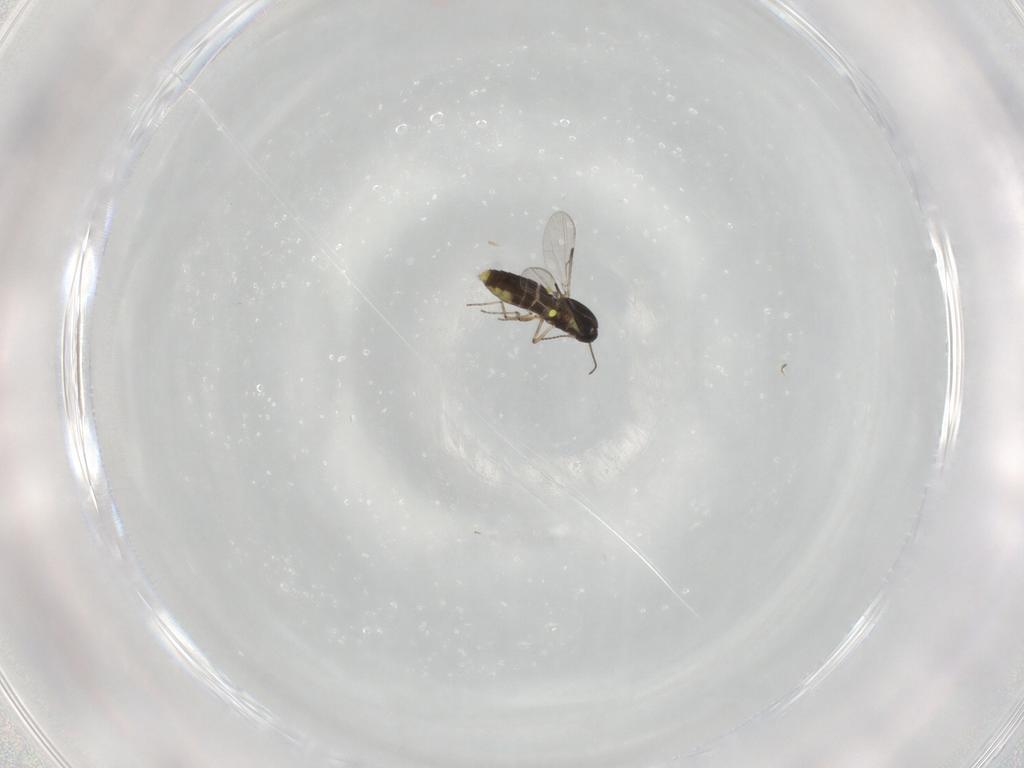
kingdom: Animalia
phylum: Arthropoda
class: Insecta
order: Diptera
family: Ceratopogonidae
